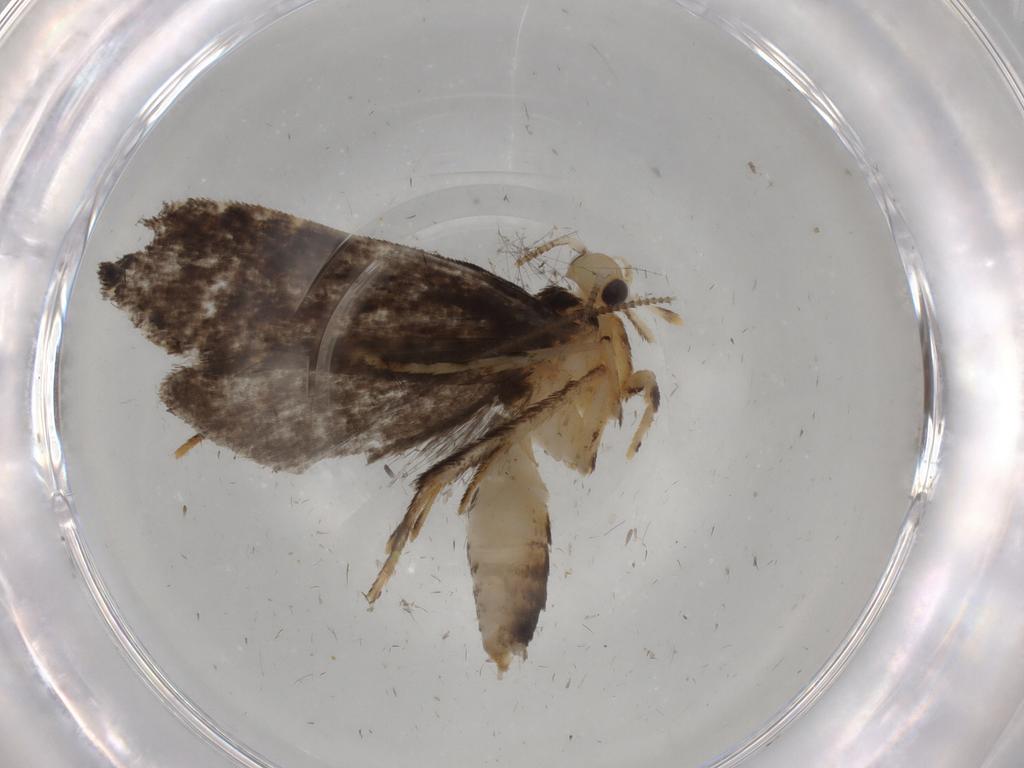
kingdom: Animalia
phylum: Arthropoda
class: Insecta
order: Lepidoptera
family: Tineidae
